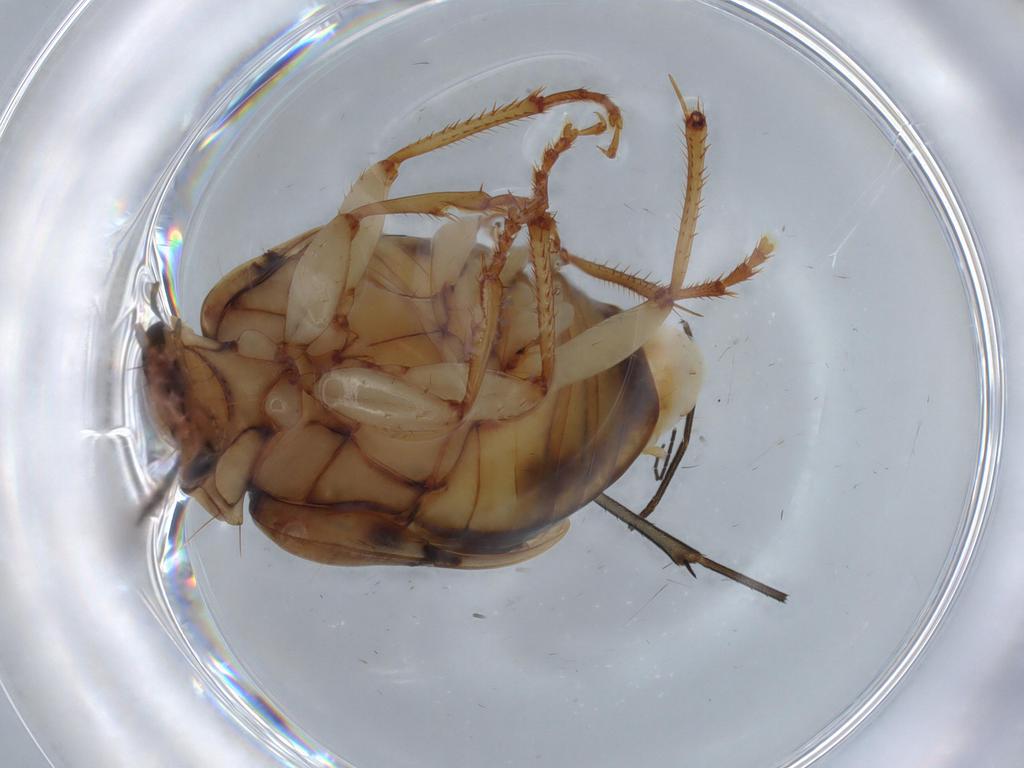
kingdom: Animalia
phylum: Arthropoda
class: Insecta
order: Coleoptera
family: Carabidae
